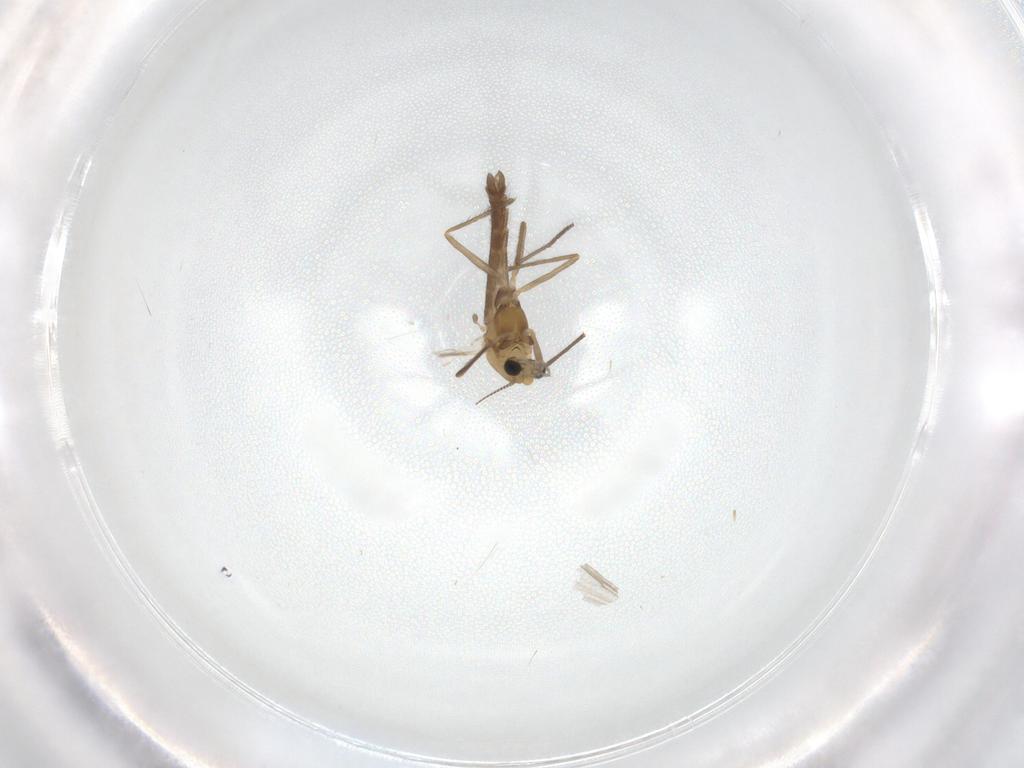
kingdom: Animalia
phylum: Arthropoda
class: Insecta
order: Diptera
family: Chironomidae
